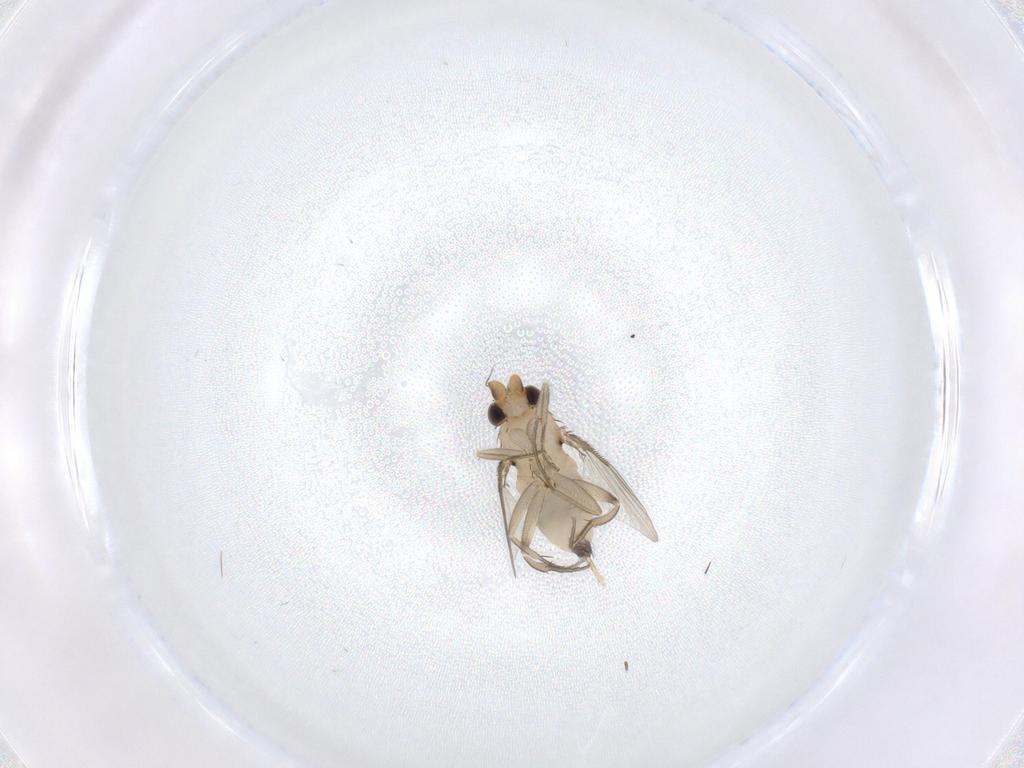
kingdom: Animalia
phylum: Arthropoda
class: Insecta
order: Diptera
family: Phoridae
